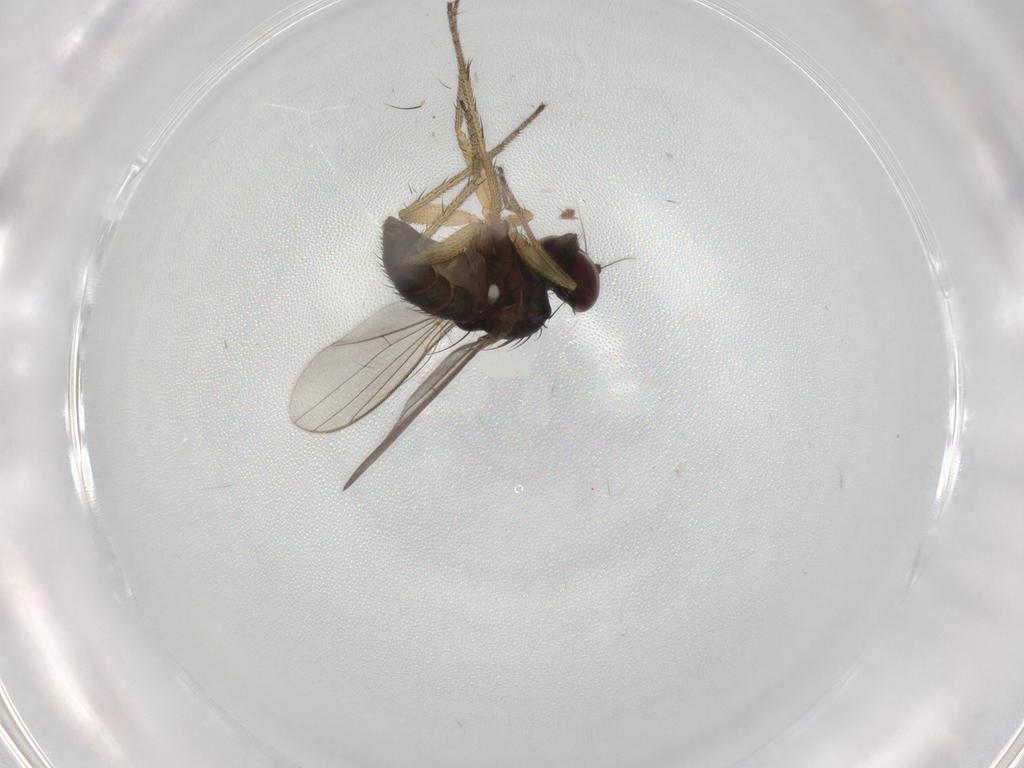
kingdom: Animalia
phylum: Arthropoda
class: Insecta
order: Diptera
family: Dolichopodidae
